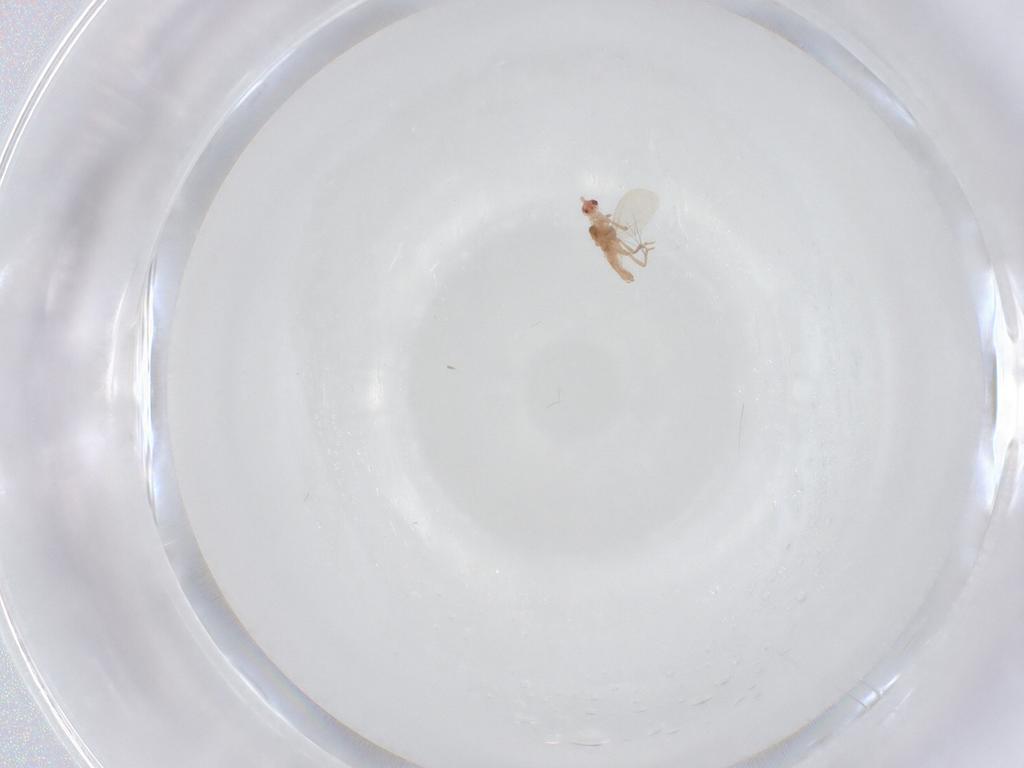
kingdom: Animalia
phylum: Arthropoda
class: Insecta
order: Diptera
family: Cecidomyiidae
